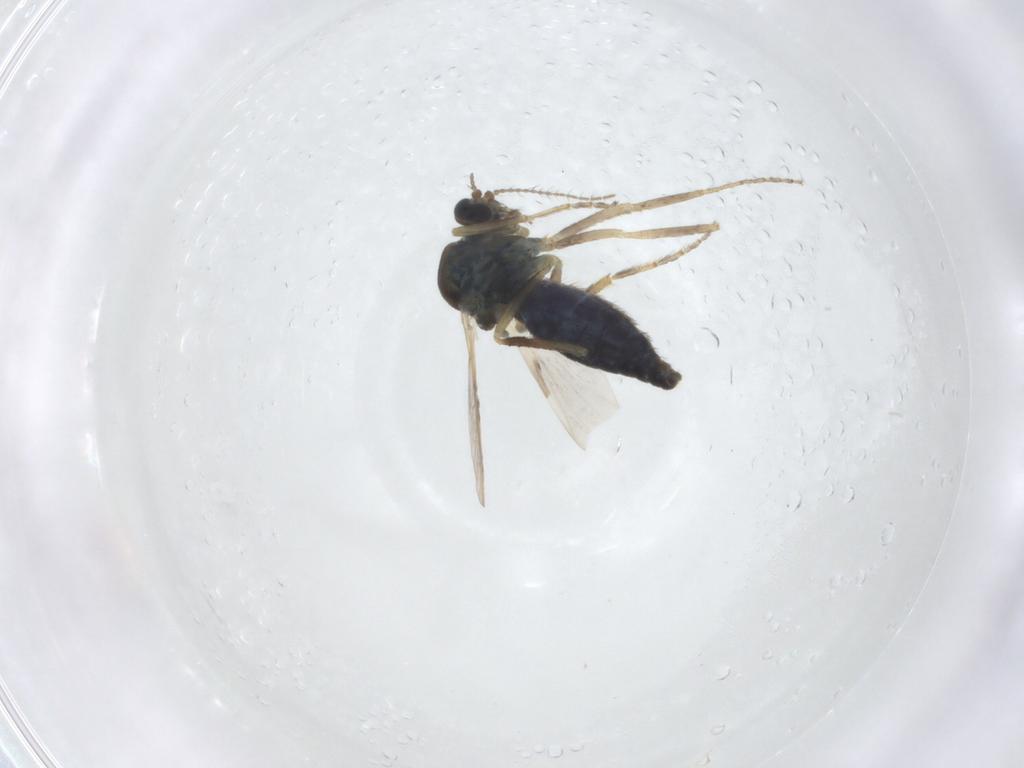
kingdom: Animalia
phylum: Arthropoda
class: Insecta
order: Diptera
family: Ceratopogonidae
